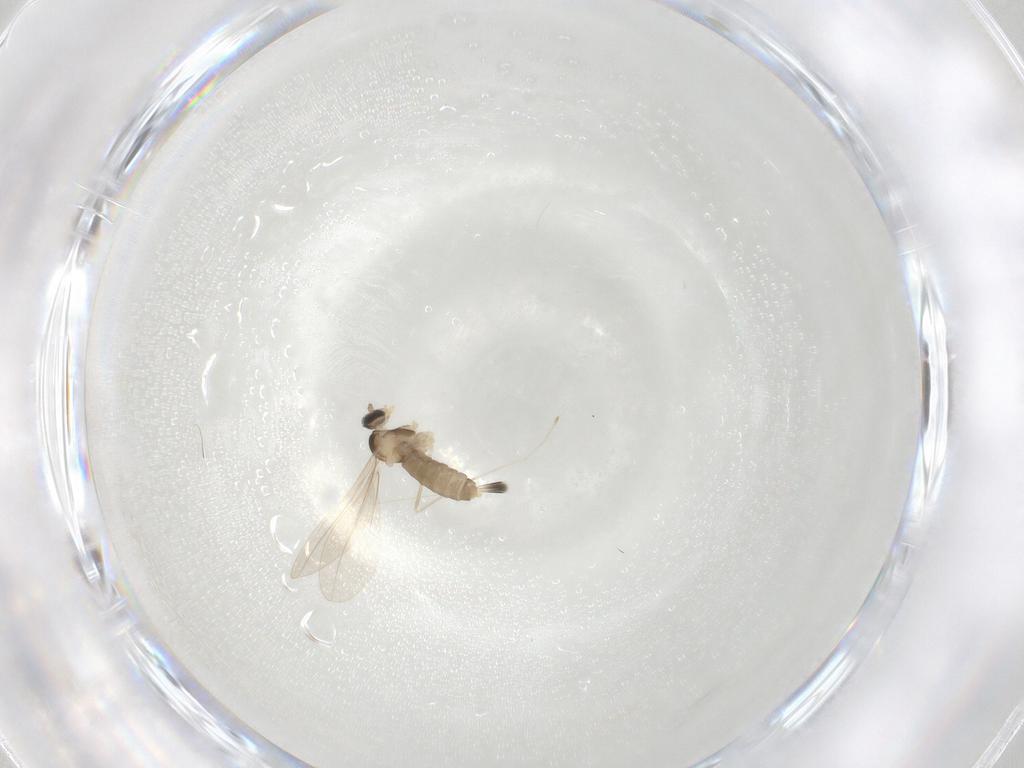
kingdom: Animalia
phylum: Arthropoda
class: Insecta
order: Diptera
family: Cecidomyiidae
